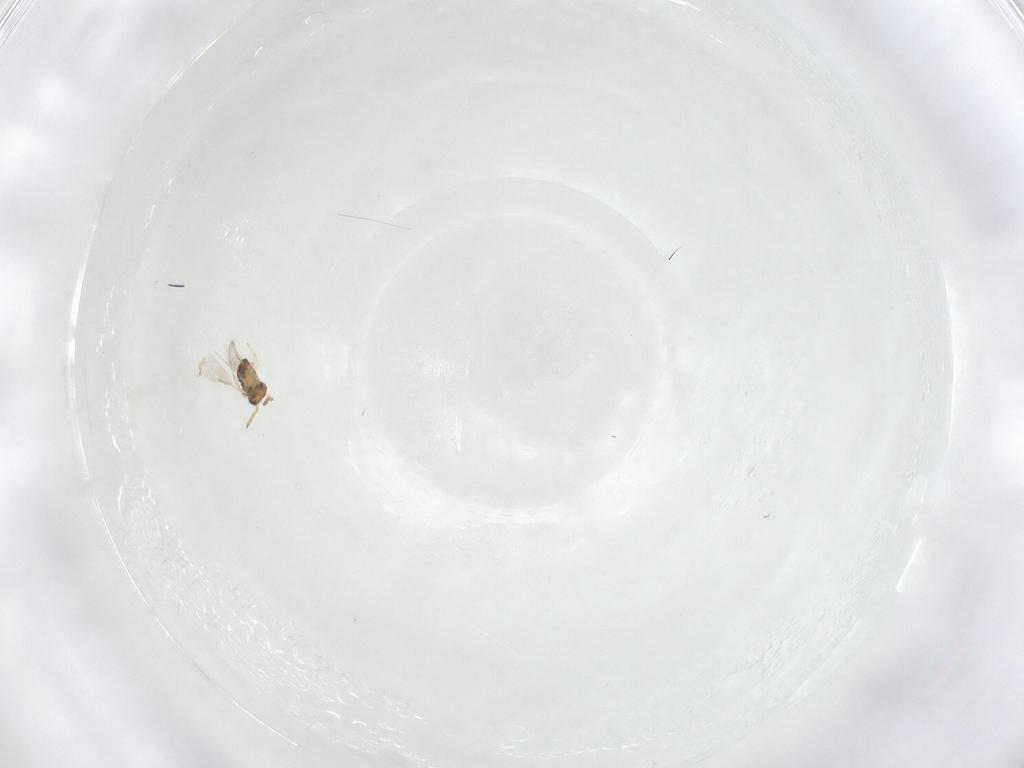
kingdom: Animalia
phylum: Arthropoda
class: Insecta
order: Hymenoptera
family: Aphelinidae
